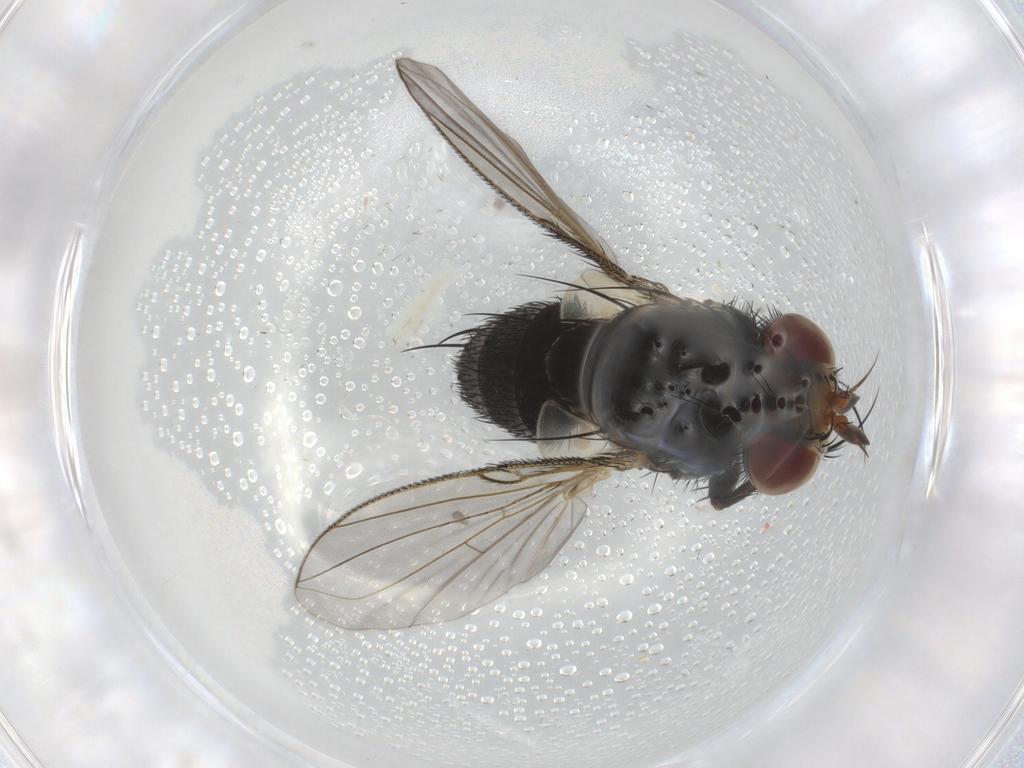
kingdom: Animalia
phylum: Arthropoda
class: Insecta
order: Diptera
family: Tachinidae
